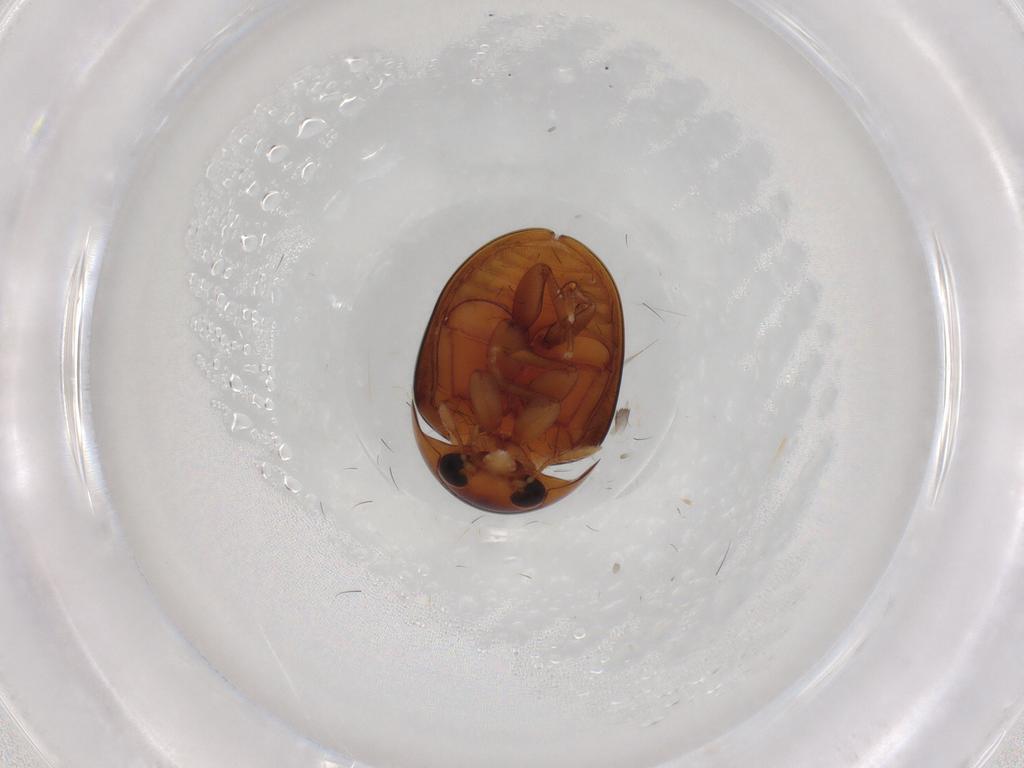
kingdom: Animalia
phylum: Arthropoda
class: Insecta
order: Coleoptera
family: Phalacridae
